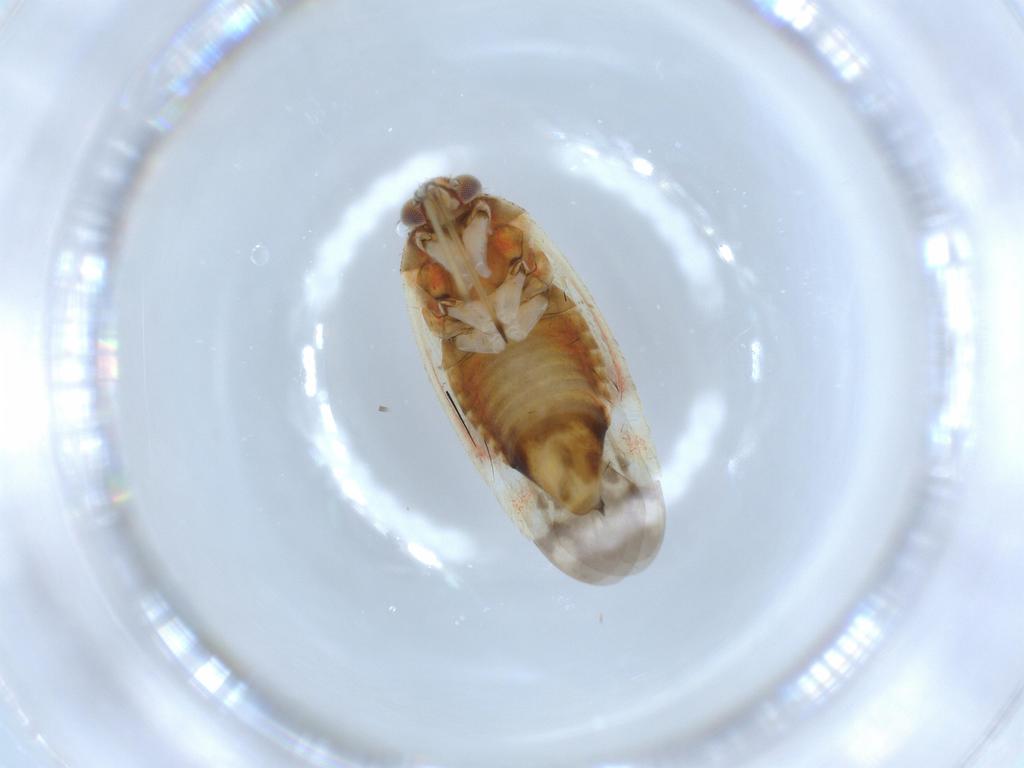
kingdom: Animalia
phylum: Arthropoda
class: Insecta
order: Hemiptera
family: Miridae
